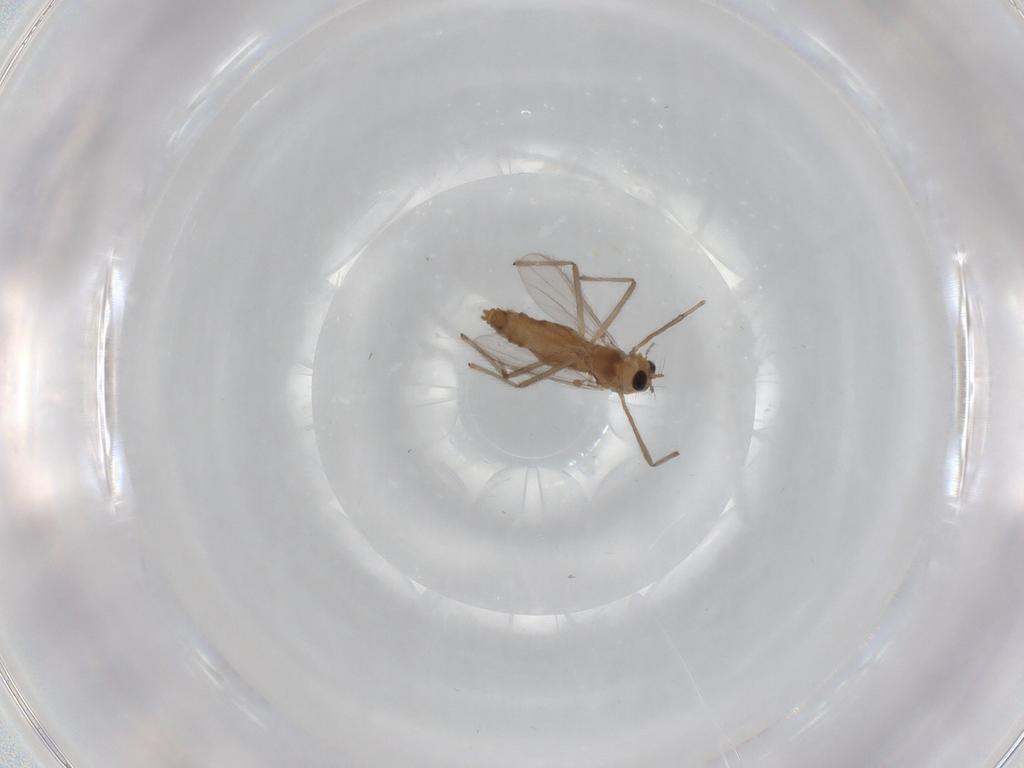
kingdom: Animalia
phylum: Arthropoda
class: Insecta
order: Diptera
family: Chironomidae
